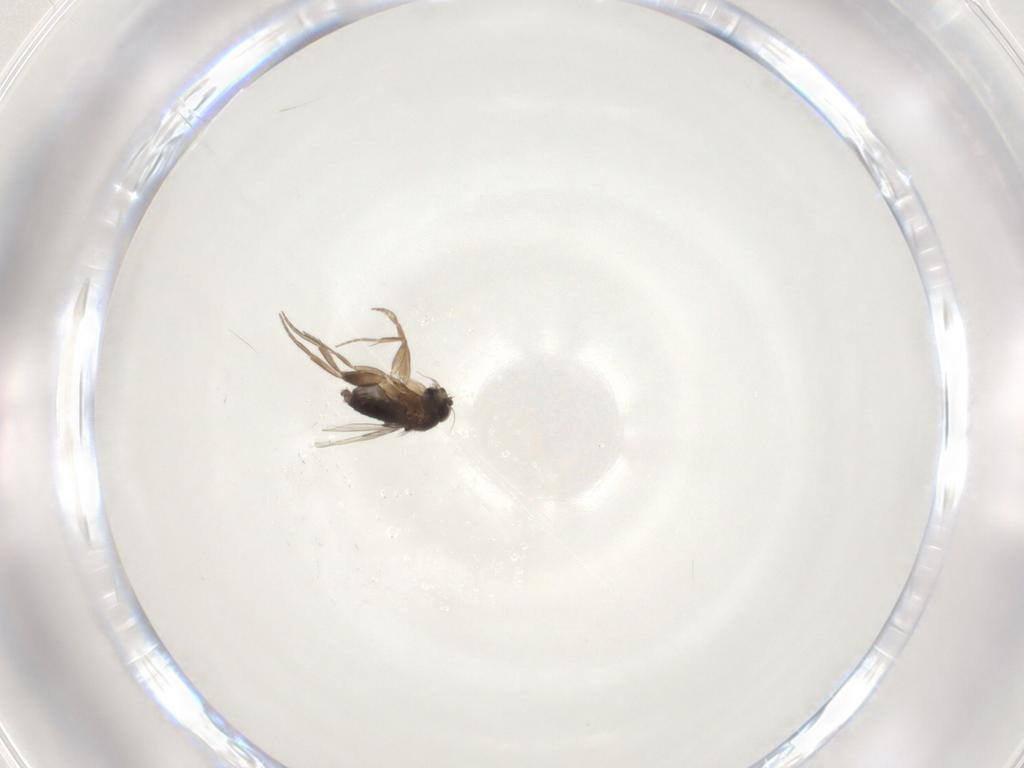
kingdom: Animalia
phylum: Arthropoda
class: Insecta
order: Diptera
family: Phoridae
